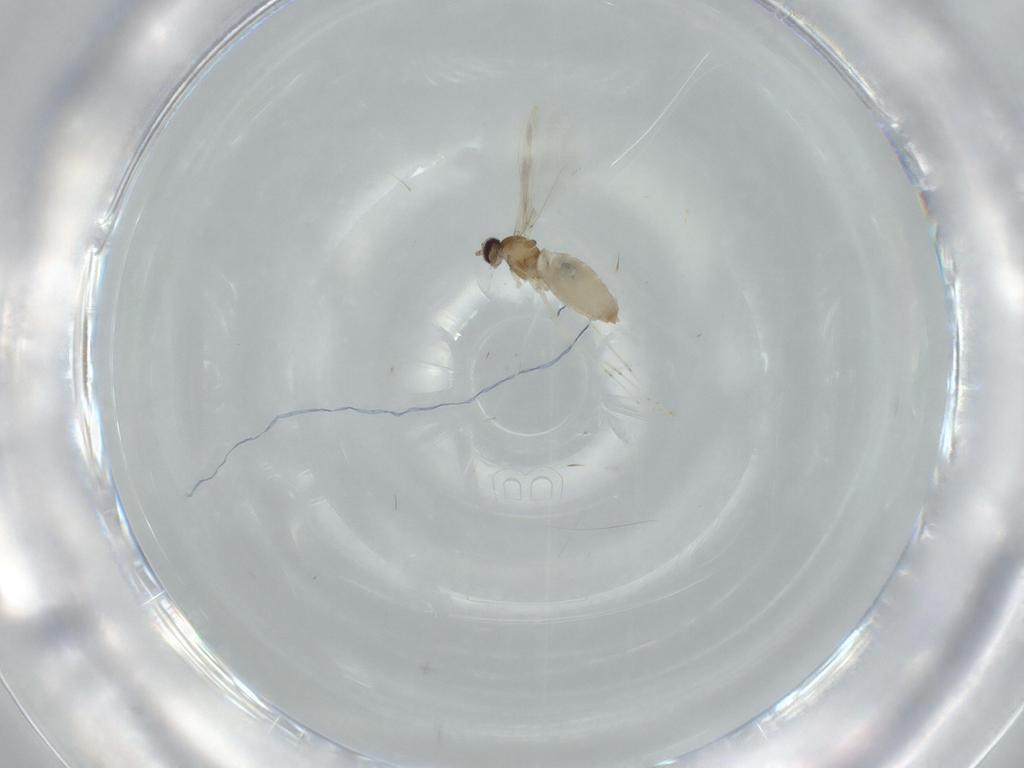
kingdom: Animalia
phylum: Arthropoda
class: Insecta
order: Diptera
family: Cecidomyiidae
